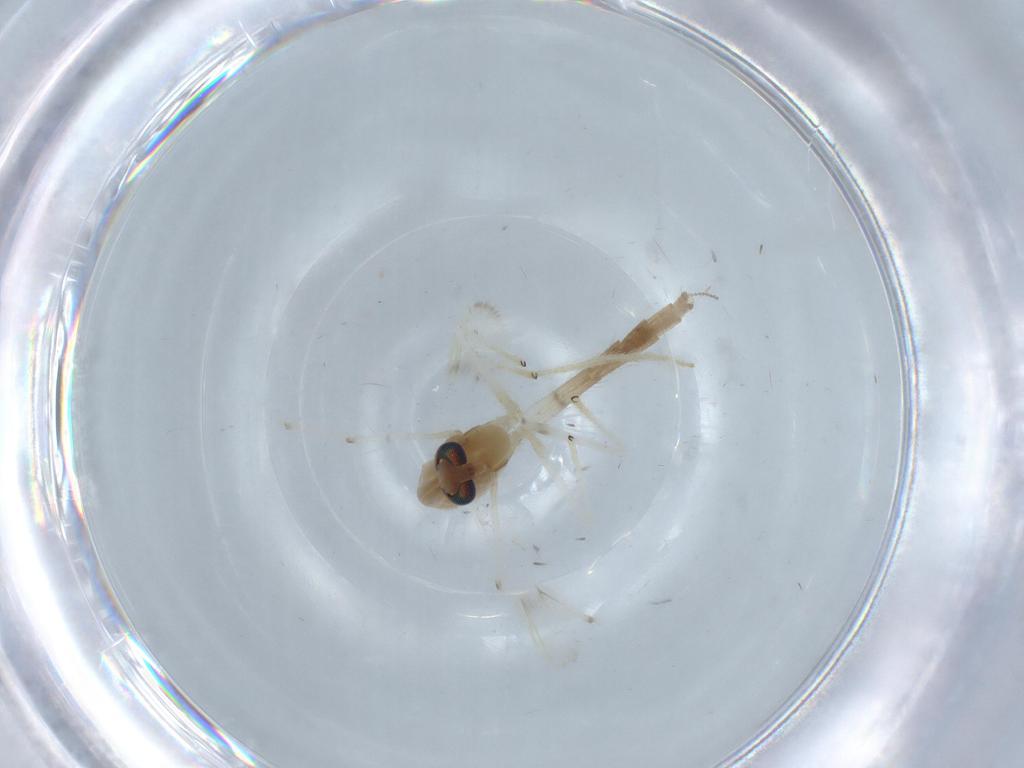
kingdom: Animalia
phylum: Arthropoda
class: Insecta
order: Diptera
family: Chironomidae
